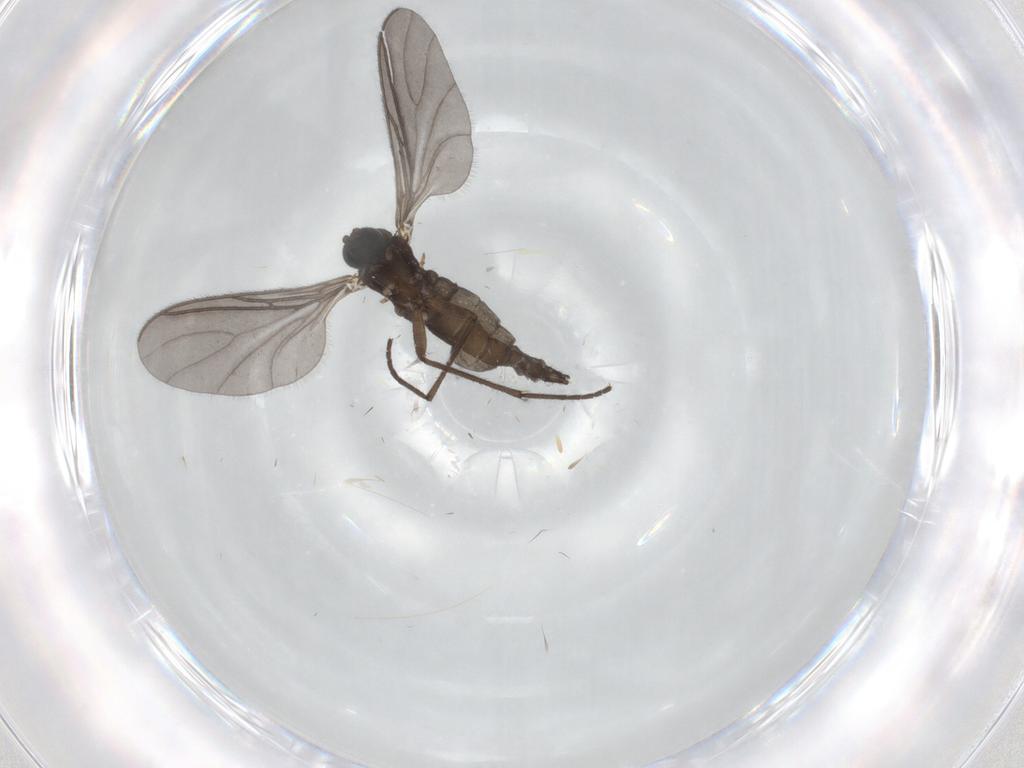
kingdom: Animalia
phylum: Arthropoda
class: Insecta
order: Diptera
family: Sciaridae
